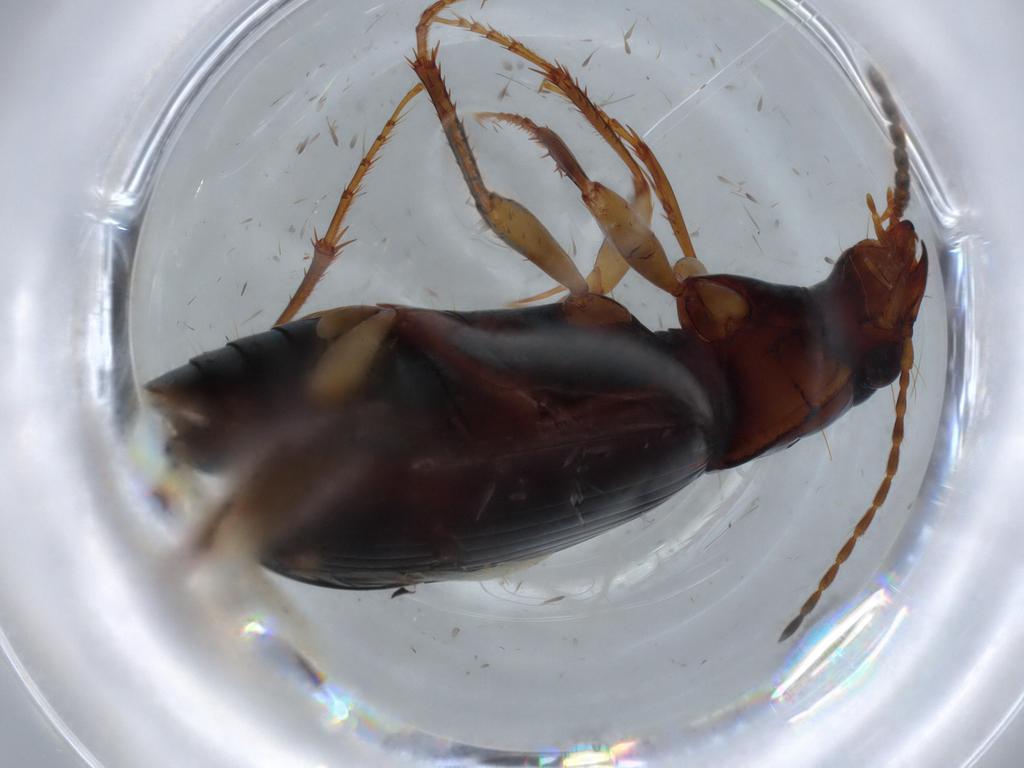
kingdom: Animalia
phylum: Arthropoda
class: Insecta
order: Coleoptera
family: Carabidae
